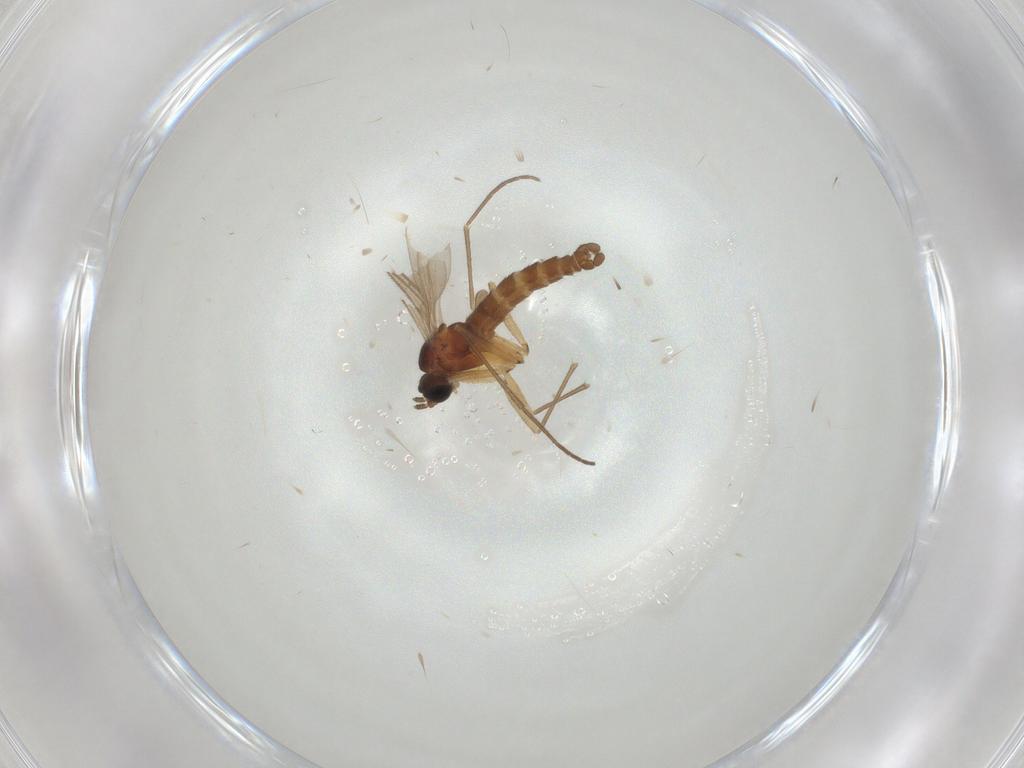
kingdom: Animalia
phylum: Arthropoda
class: Insecta
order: Diptera
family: Sciaridae
